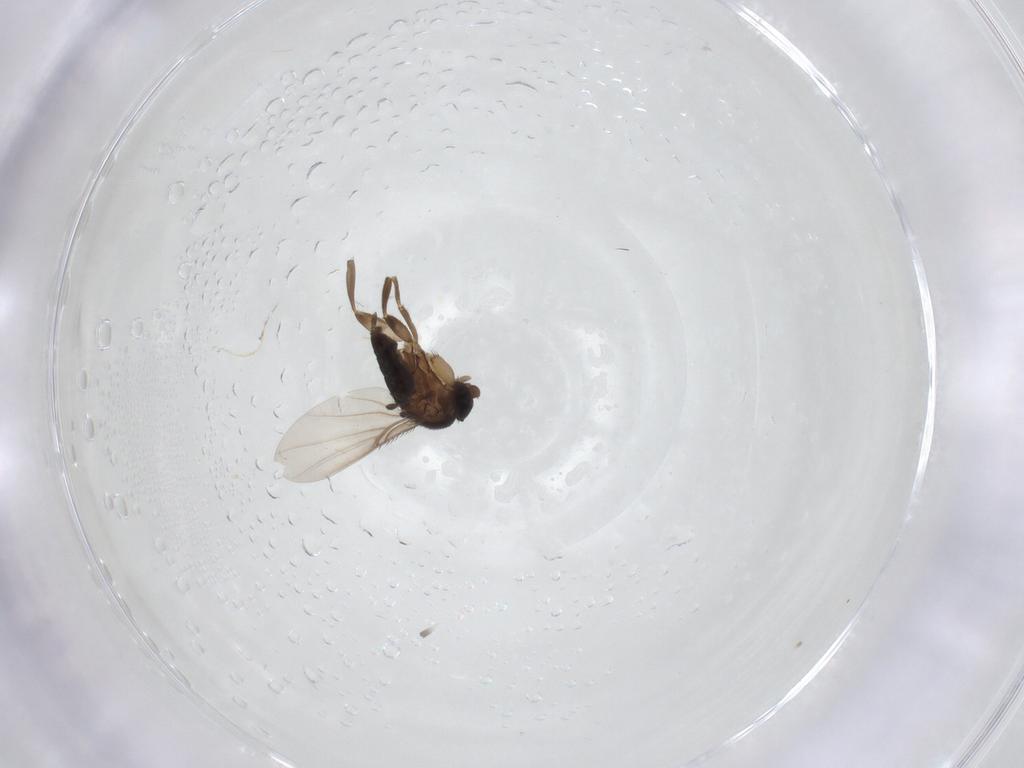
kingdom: Animalia
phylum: Arthropoda
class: Insecta
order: Diptera
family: Phoridae
